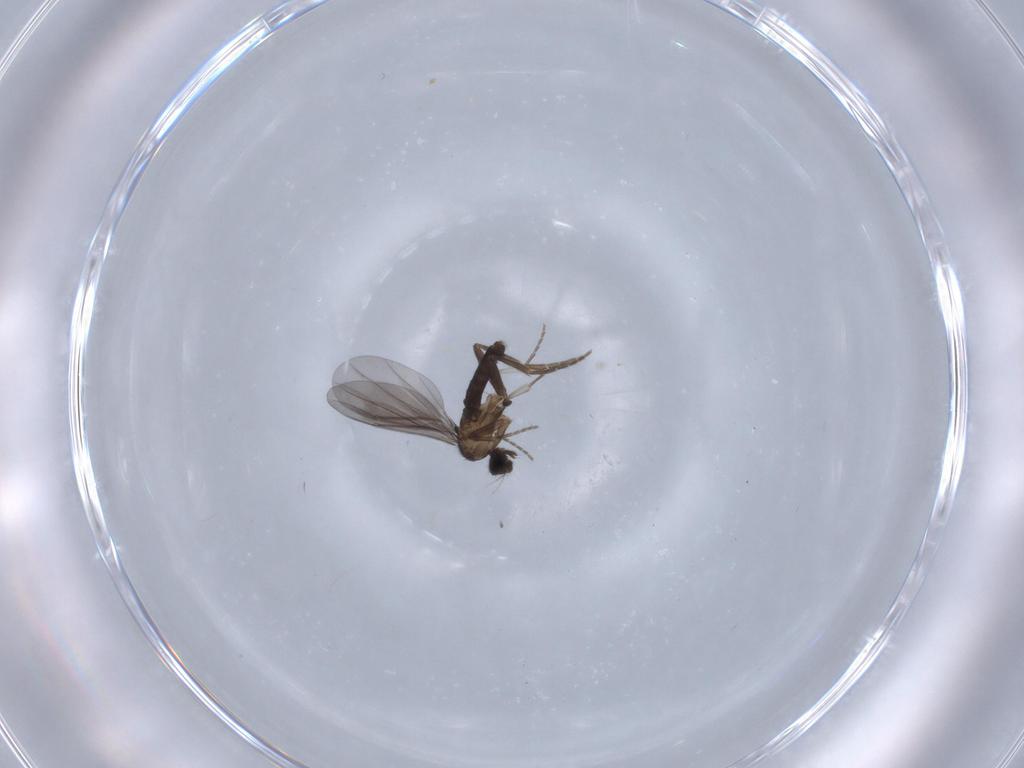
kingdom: Animalia
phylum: Arthropoda
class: Insecta
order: Diptera
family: Phoridae
